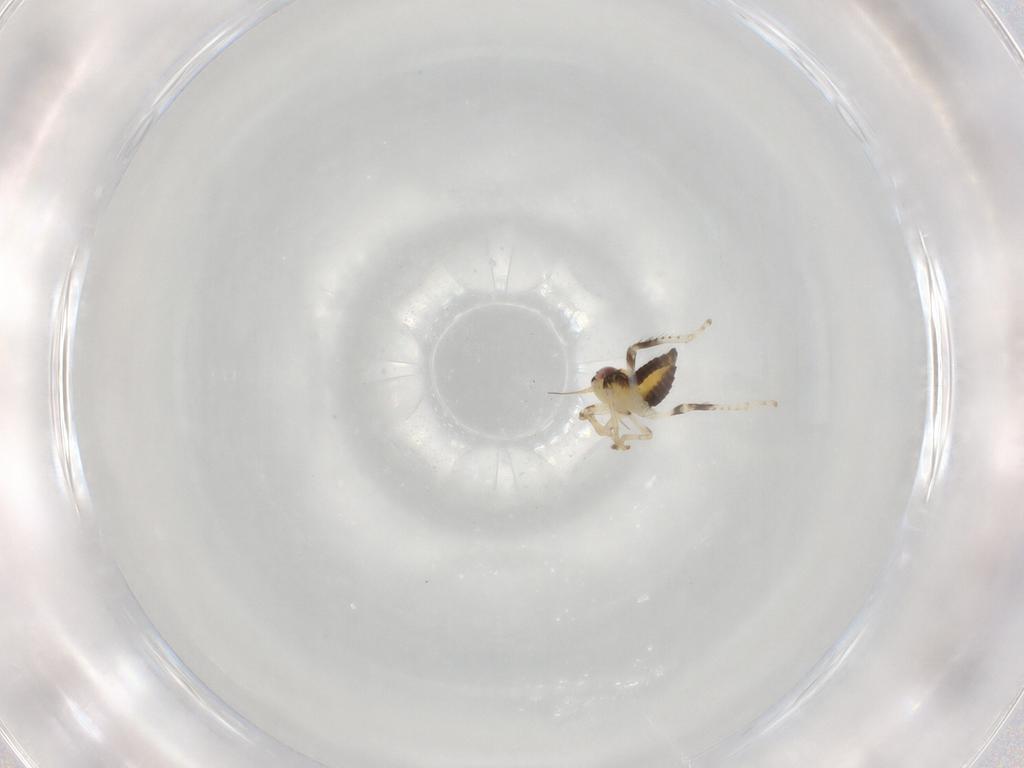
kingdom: Animalia
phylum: Arthropoda
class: Insecta
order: Hemiptera
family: Cicadellidae
